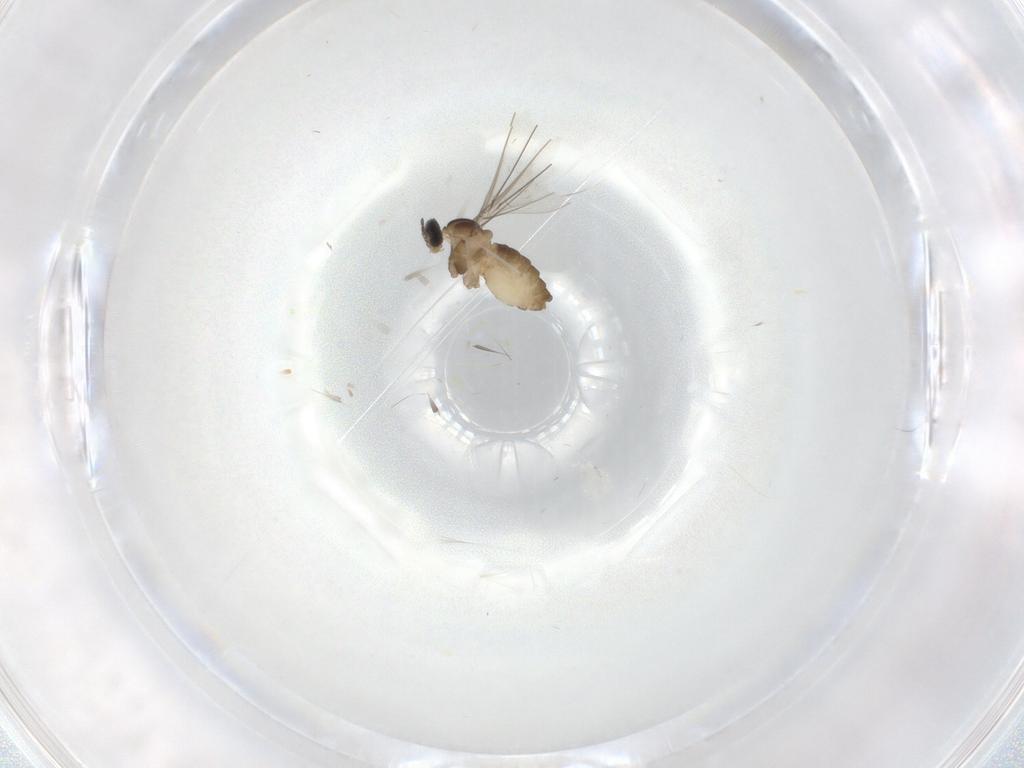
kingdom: Animalia
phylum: Arthropoda
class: Insecta
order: Diptera
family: Cecidomyiidae
